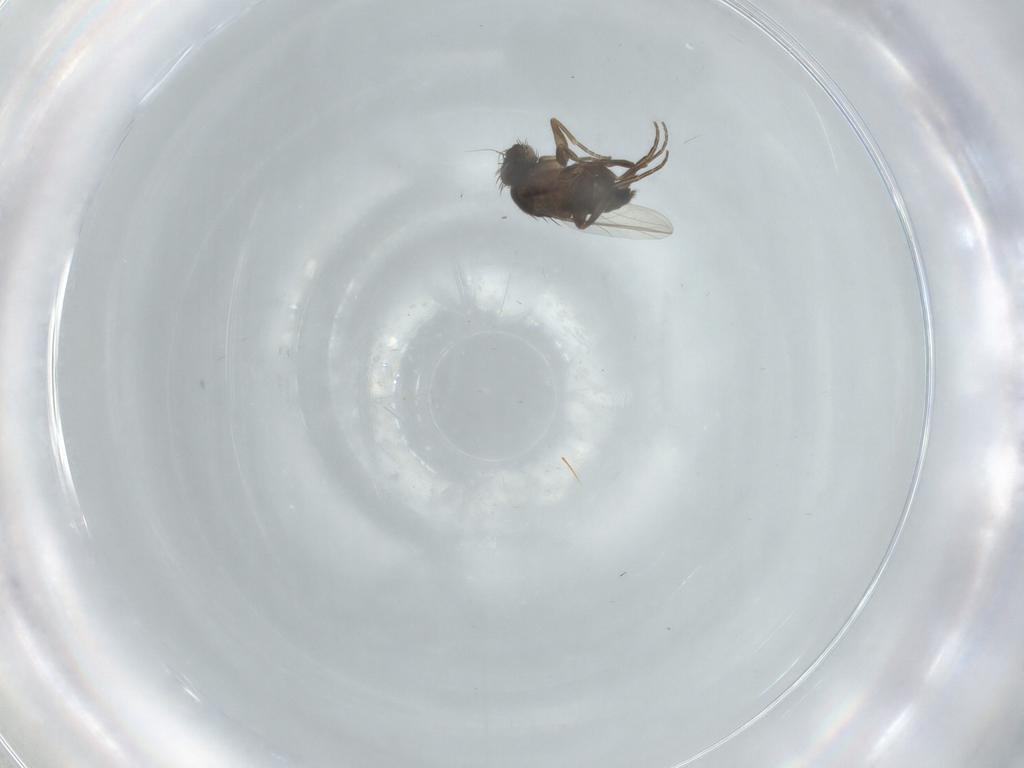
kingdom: Animalia
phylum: Arthropoda
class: Insecta
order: Diptera
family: Phoridae
